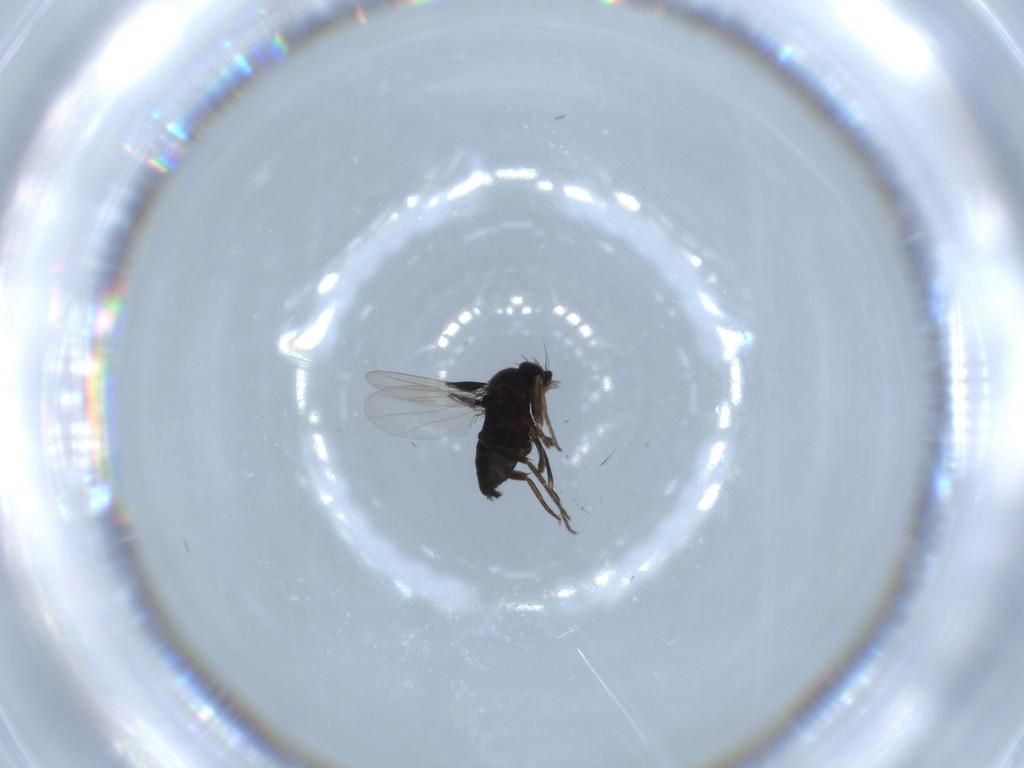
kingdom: Animalia
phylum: Arthropoda
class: Insecta
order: Diptera
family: Phoridae
